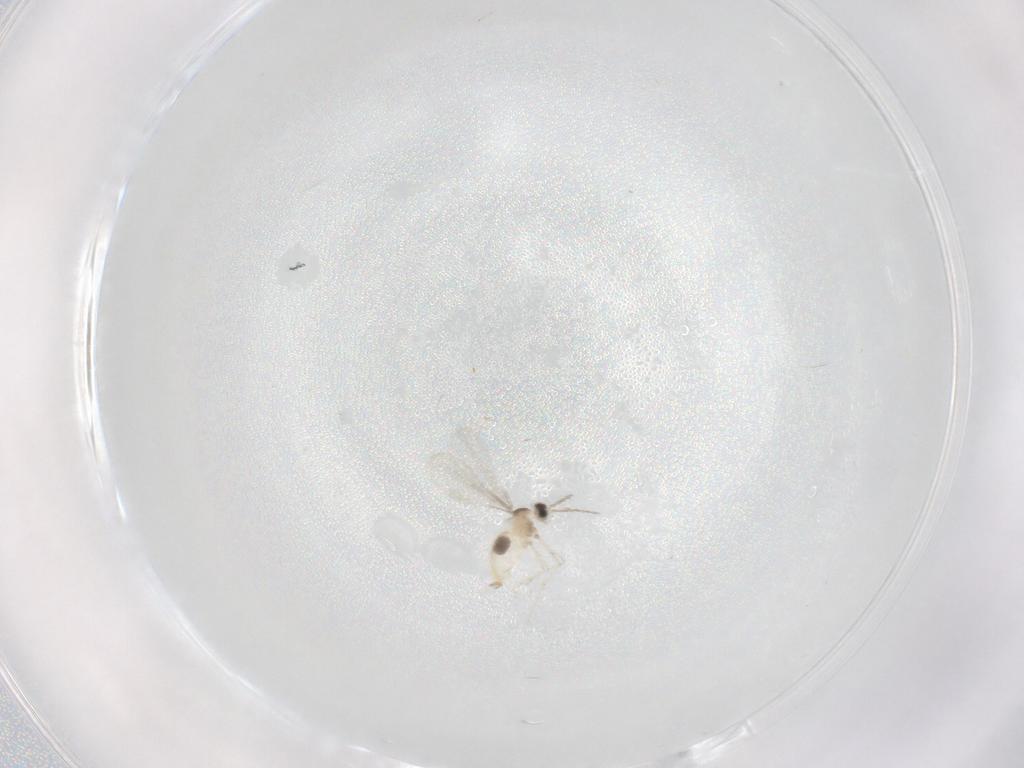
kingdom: Animalia
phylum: Arthropoda
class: Insecta
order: Diptera
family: Cecidomyiidae
